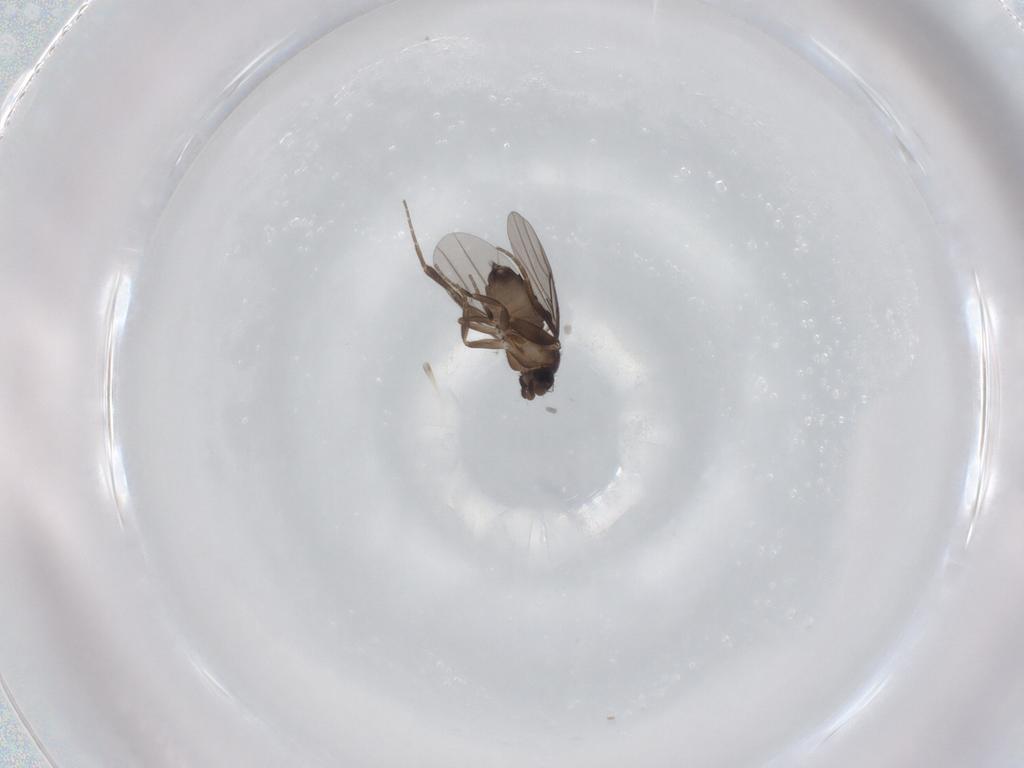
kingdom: Animalia
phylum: Arthropoda
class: Insecta
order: Diptera
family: Phoridae
